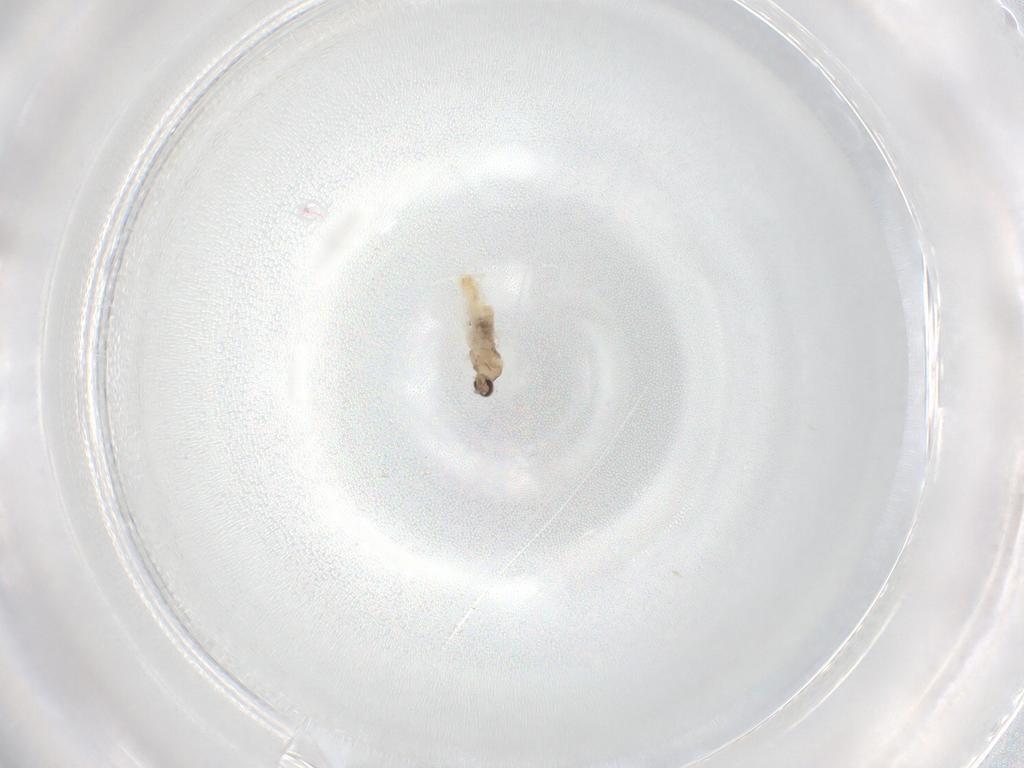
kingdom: Animalia
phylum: Arthropoda
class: Insecta
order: Diptera
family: Cecidomyiidae
